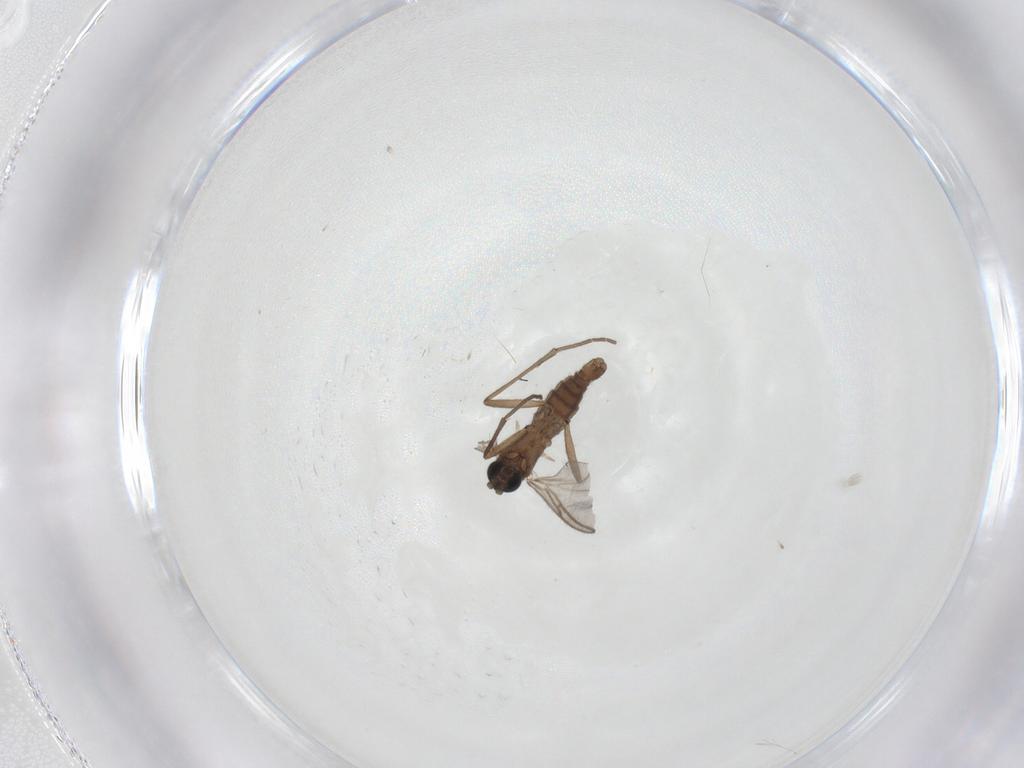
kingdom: Animalia
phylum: Arthropoda
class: Insecta
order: Diptera
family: Sciaridae
